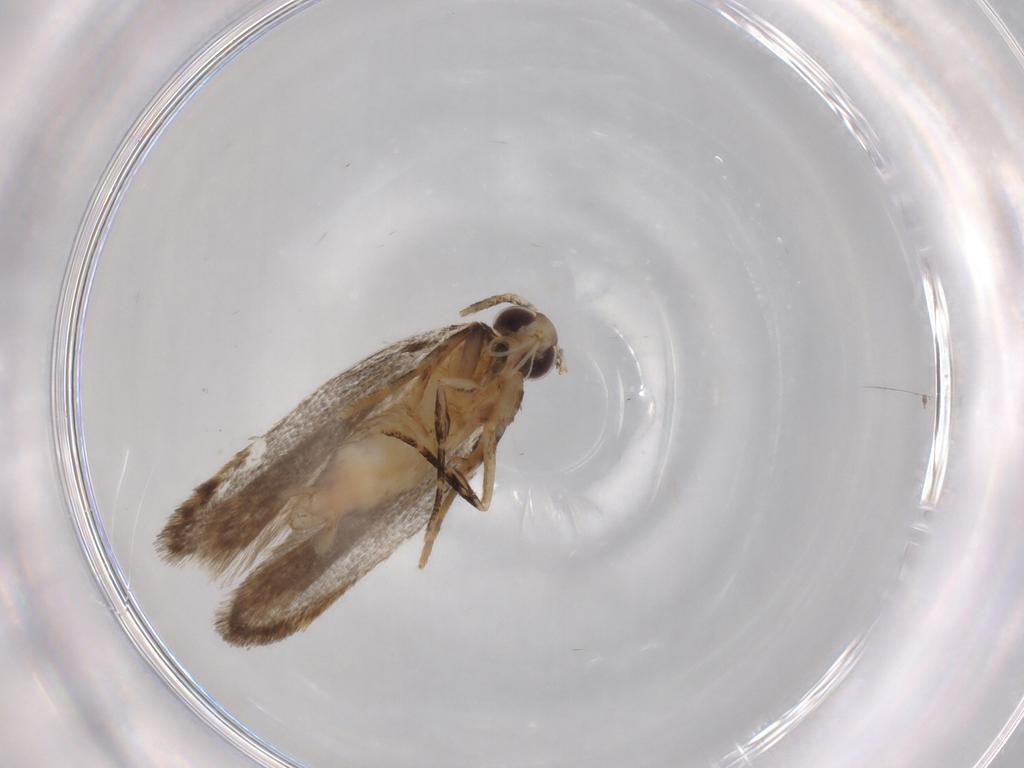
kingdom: Animalia
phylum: Arthropoda
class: Insecta
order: Lepidoptera
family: Autostichidae
